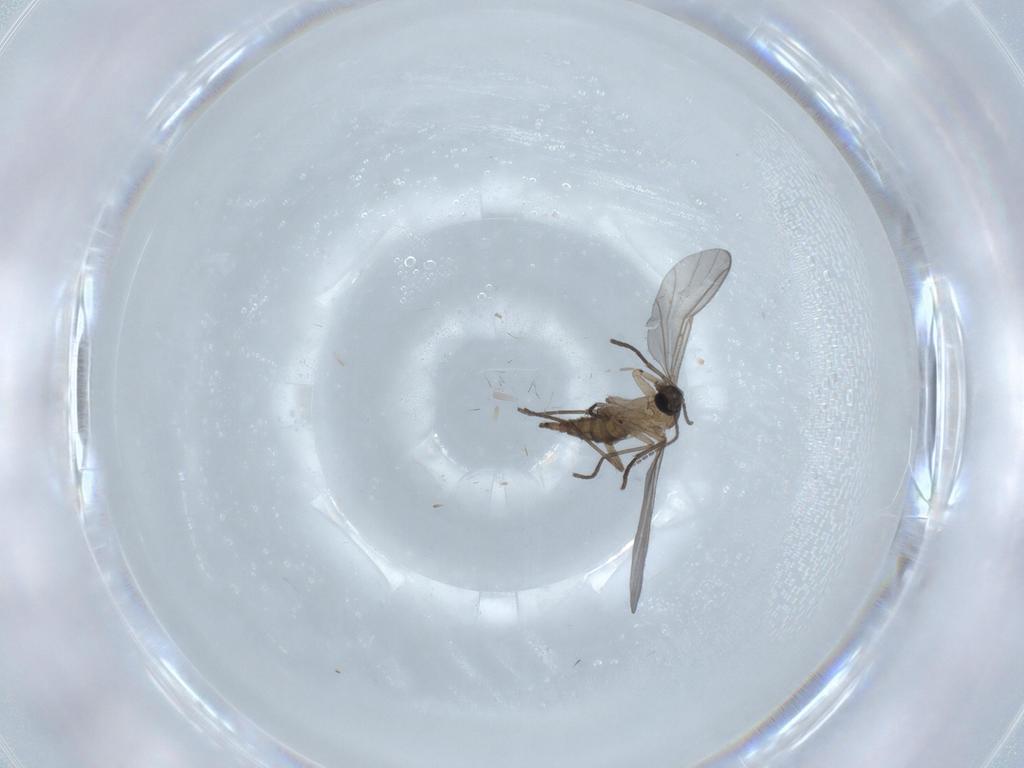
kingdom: Animalia
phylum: Arthropoda
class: Insecta
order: Diptera
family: Sciaridae
